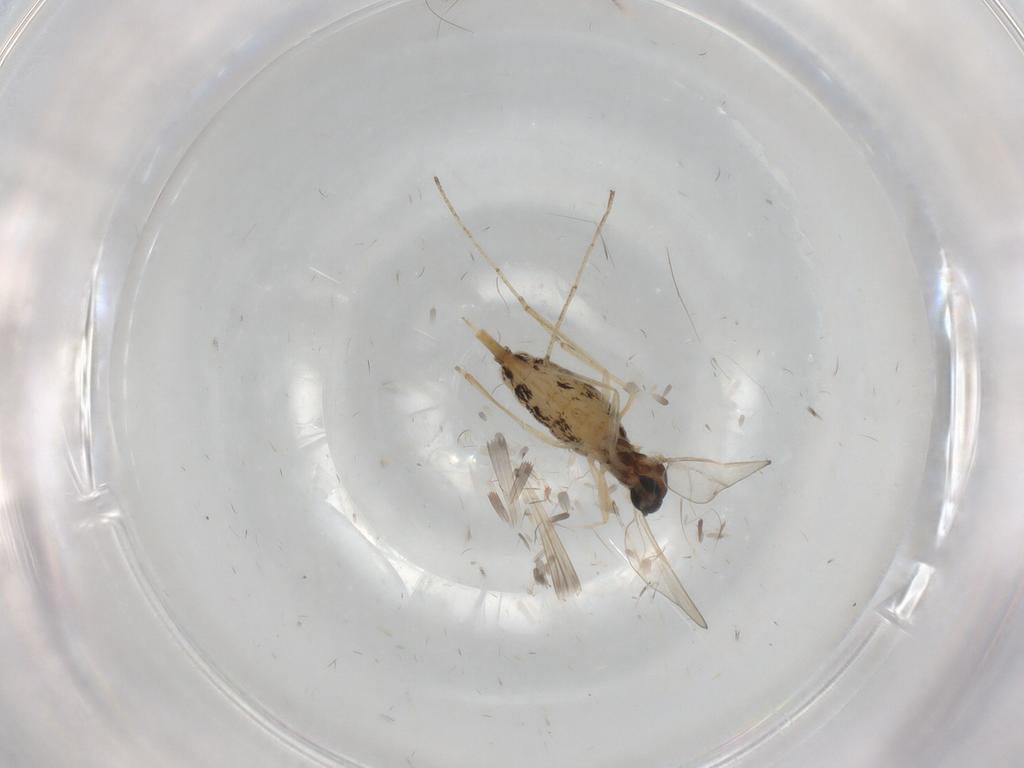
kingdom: Animalia
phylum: Arthropoda
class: Insecta
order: Diptera
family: Cecidomyiidae
